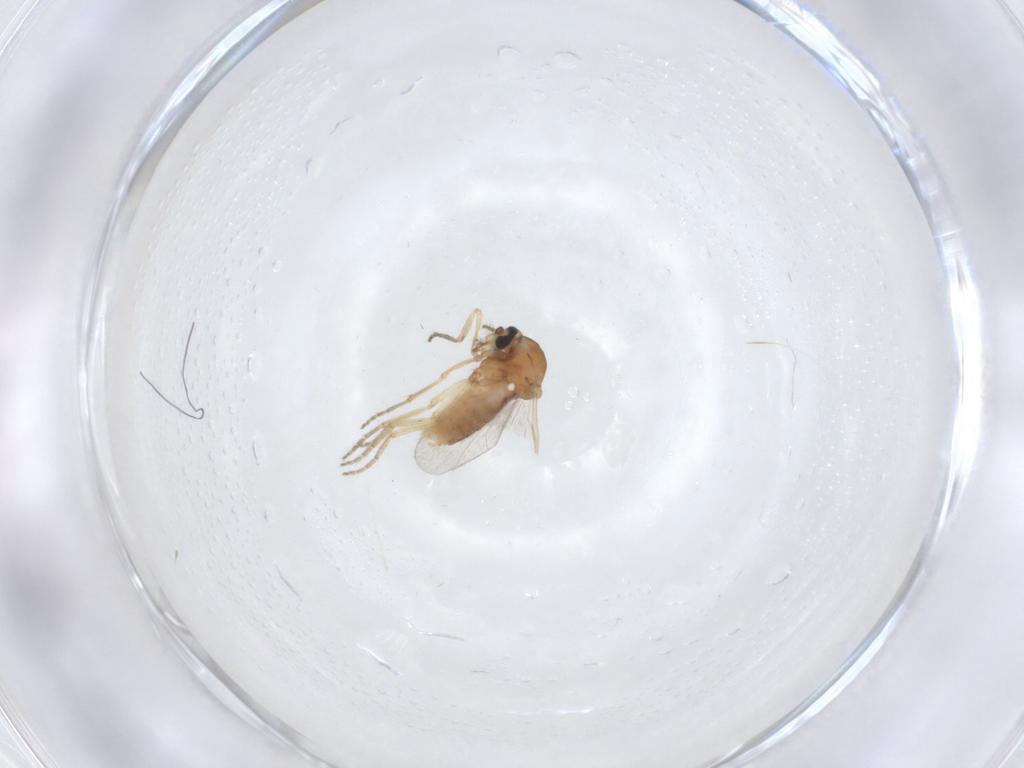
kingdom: Animalia
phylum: Arthropoda
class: Insecta
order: Diptera
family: Ceratopogonidae
